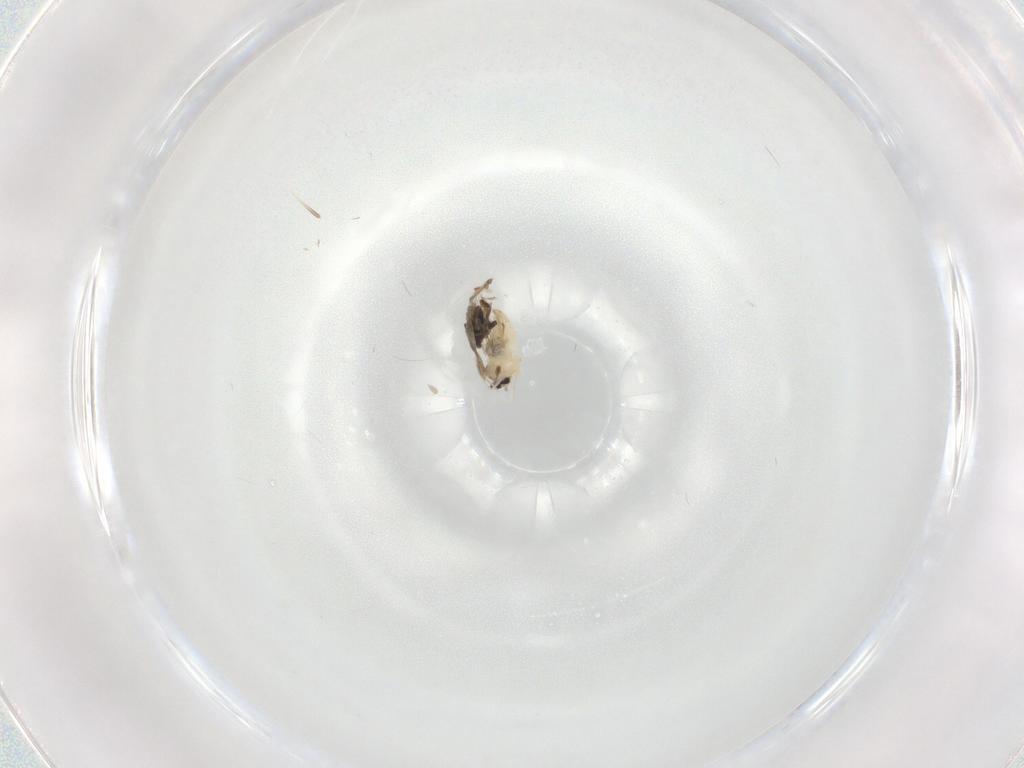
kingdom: Animalia
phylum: Arthropoda
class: Insecta
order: Diptera
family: Cecidomyiidae
